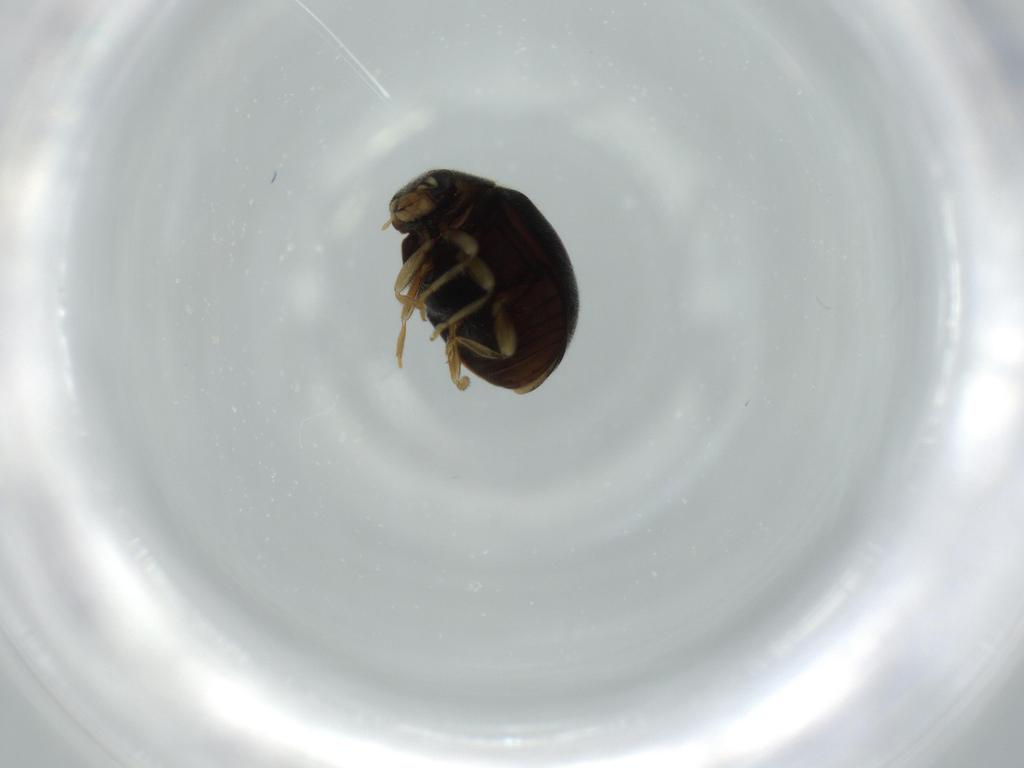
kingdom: Animalia
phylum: Arthropoda
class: Insecta
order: Coleoptera
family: Coccinellidae
